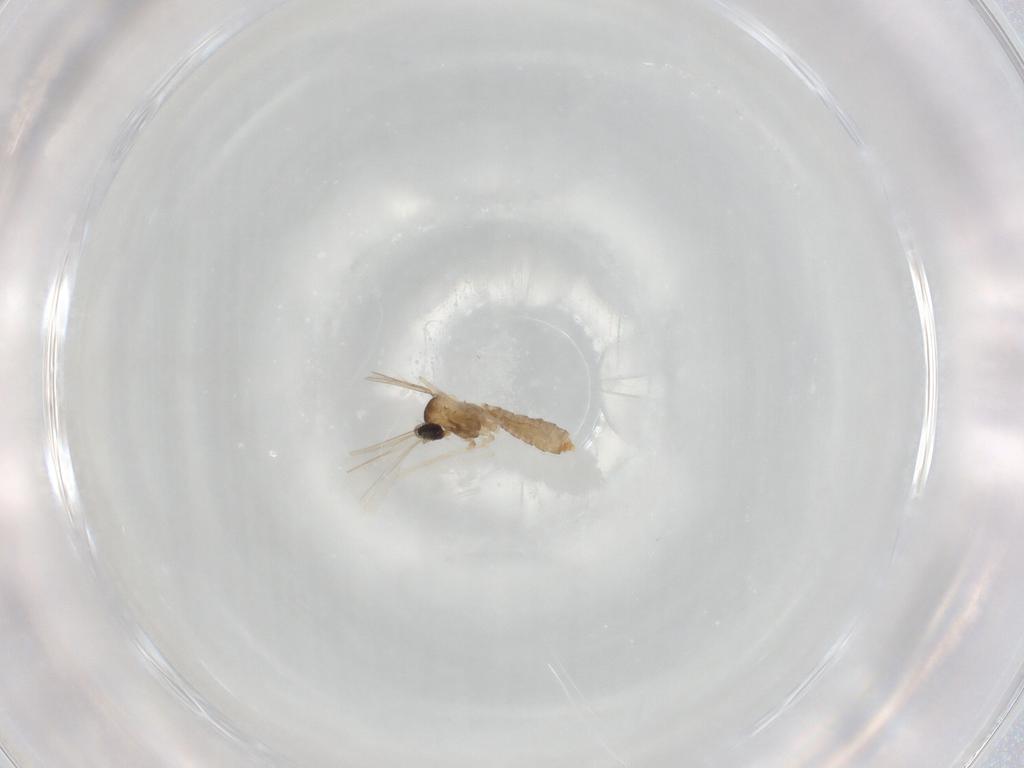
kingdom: Animalia
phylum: Arthropoda
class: Insecta
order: Diptera
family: Cecidomyiidae
